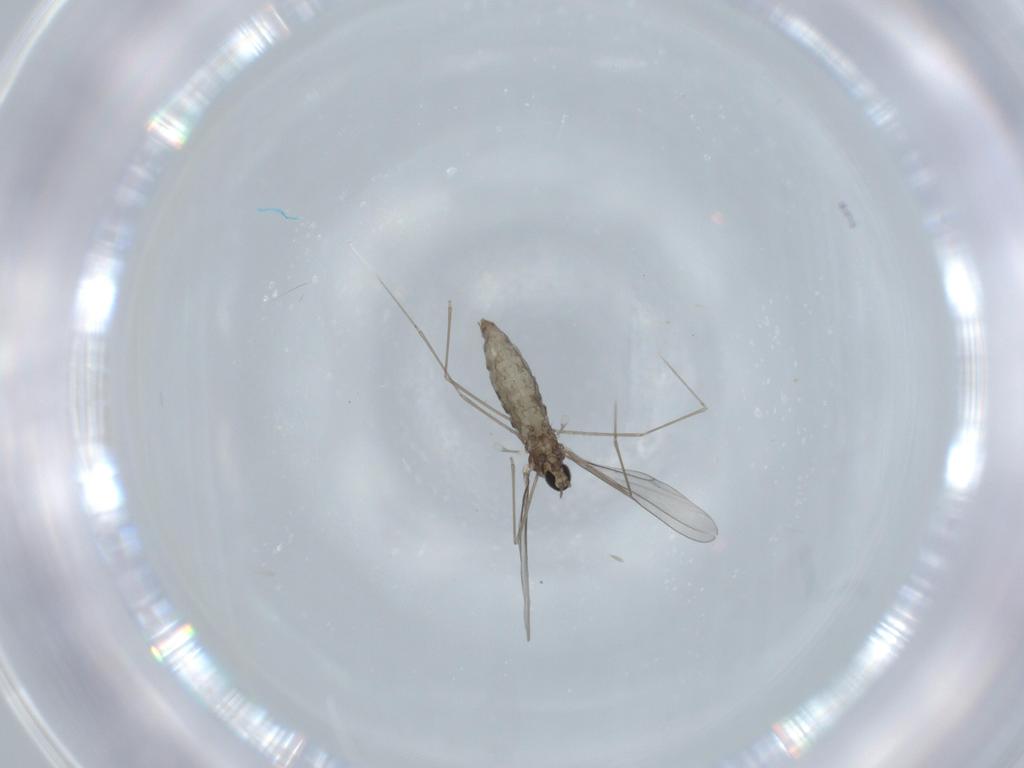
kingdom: Animalia
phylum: Arthropoda
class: Insecta
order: Diptera
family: Cecidomyiidae
